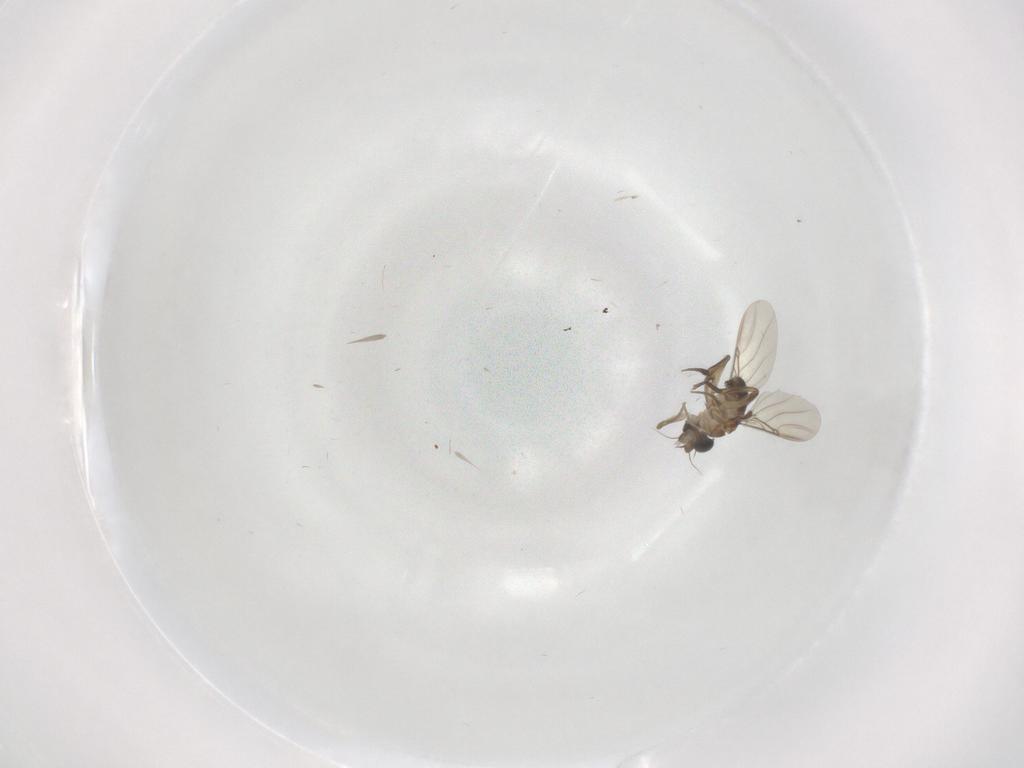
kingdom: Animalia
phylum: Arthropoda
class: Insecta
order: Diptera
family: Phoridae
